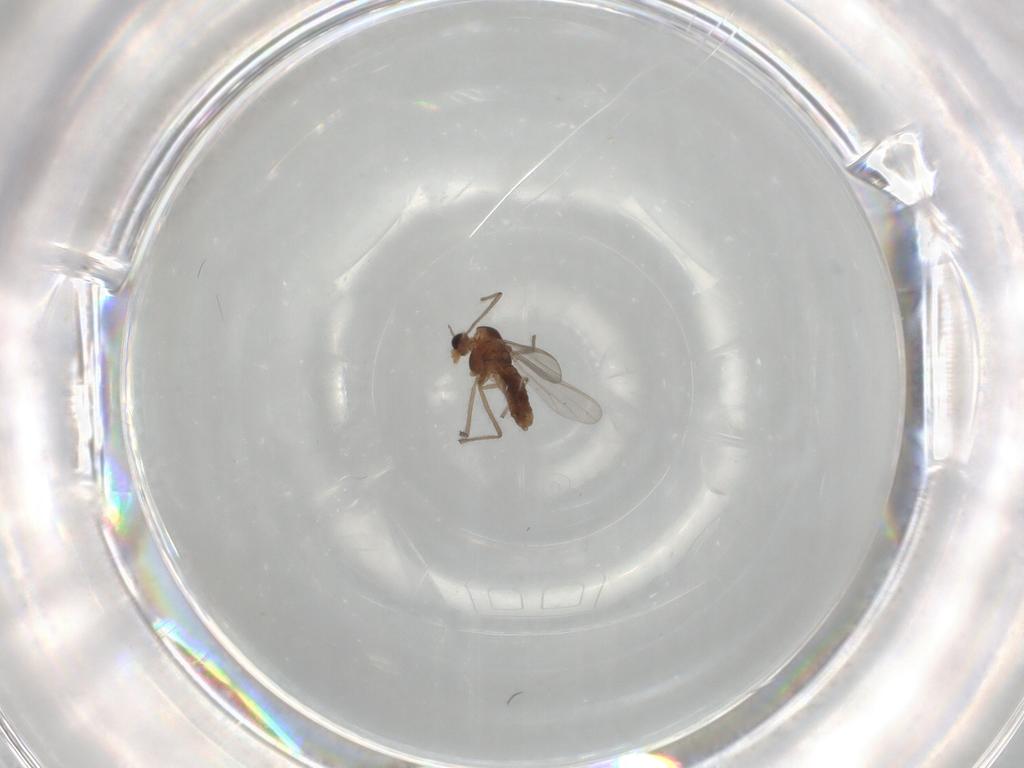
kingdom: Animalia
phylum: Arthropoda
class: Insecta
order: Diptera
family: Chironomidae
